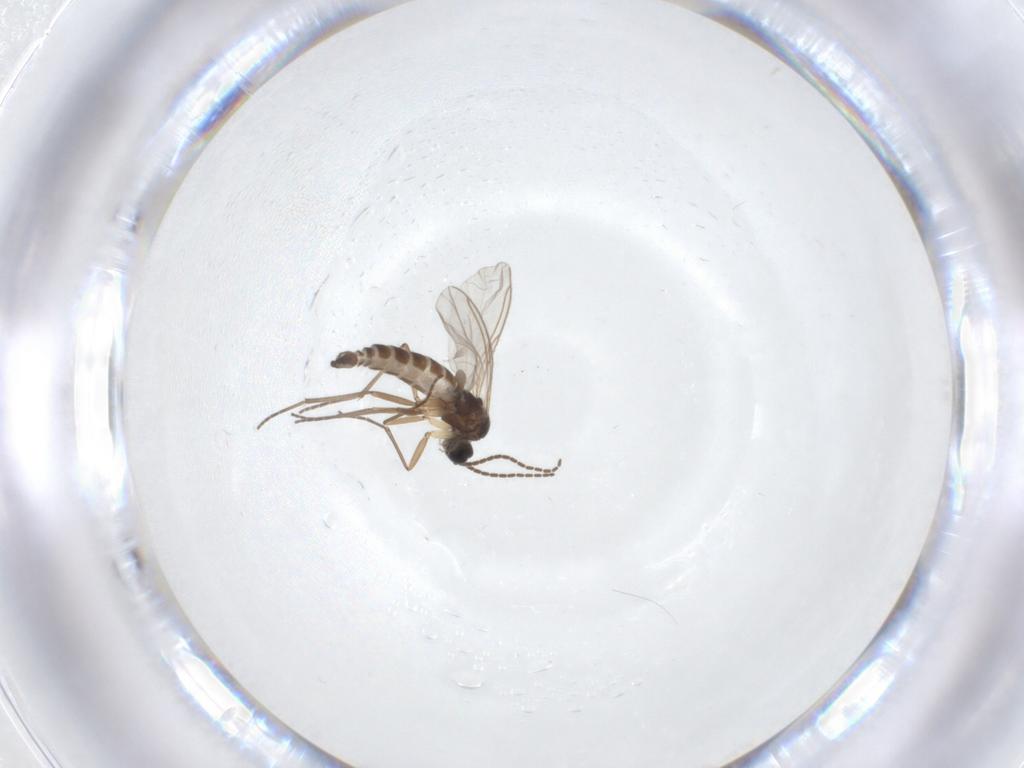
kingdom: Animalia
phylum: Arthropoda
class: Insecta
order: Diptera
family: Sciaridae
